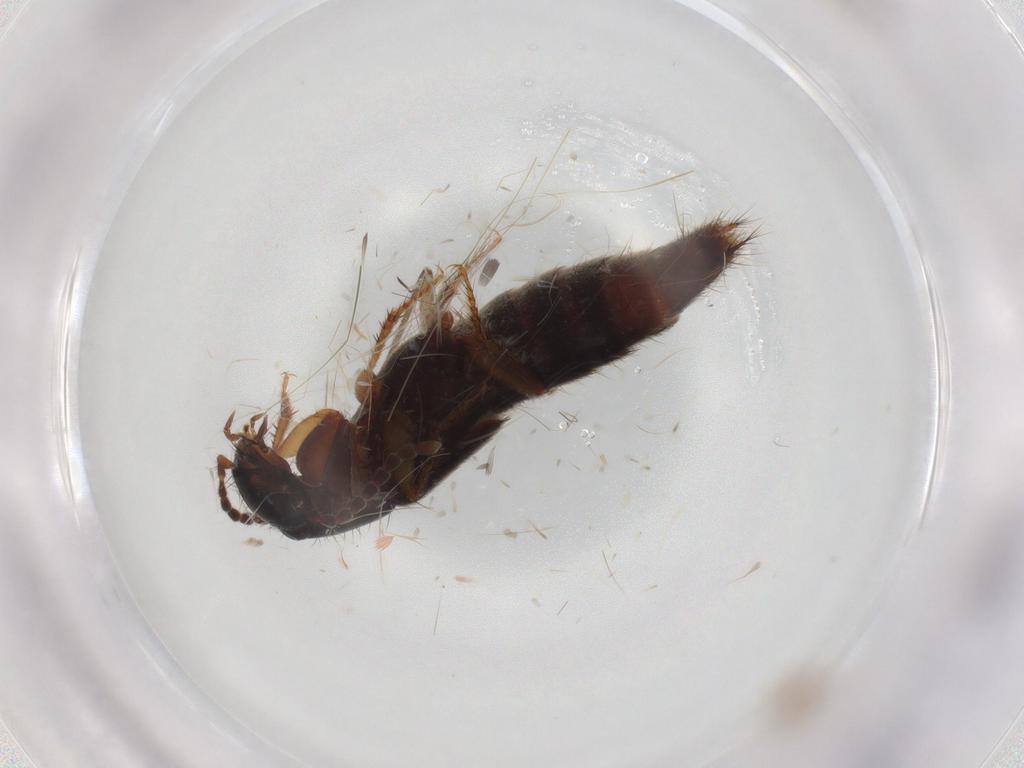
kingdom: Animalia
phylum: Arthropoda
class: Insecta
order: Coleoptera
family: Staphylinidae
